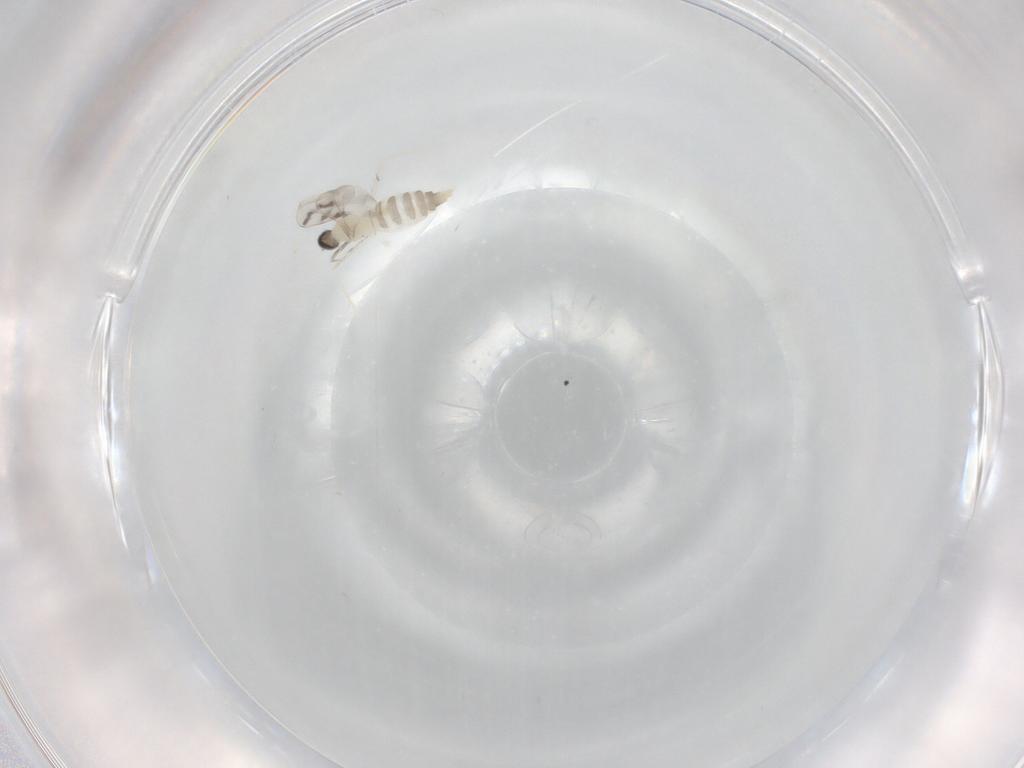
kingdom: Animalia
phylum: Arthropoda
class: Insecta
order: Diptera
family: Cecidomyiidae
